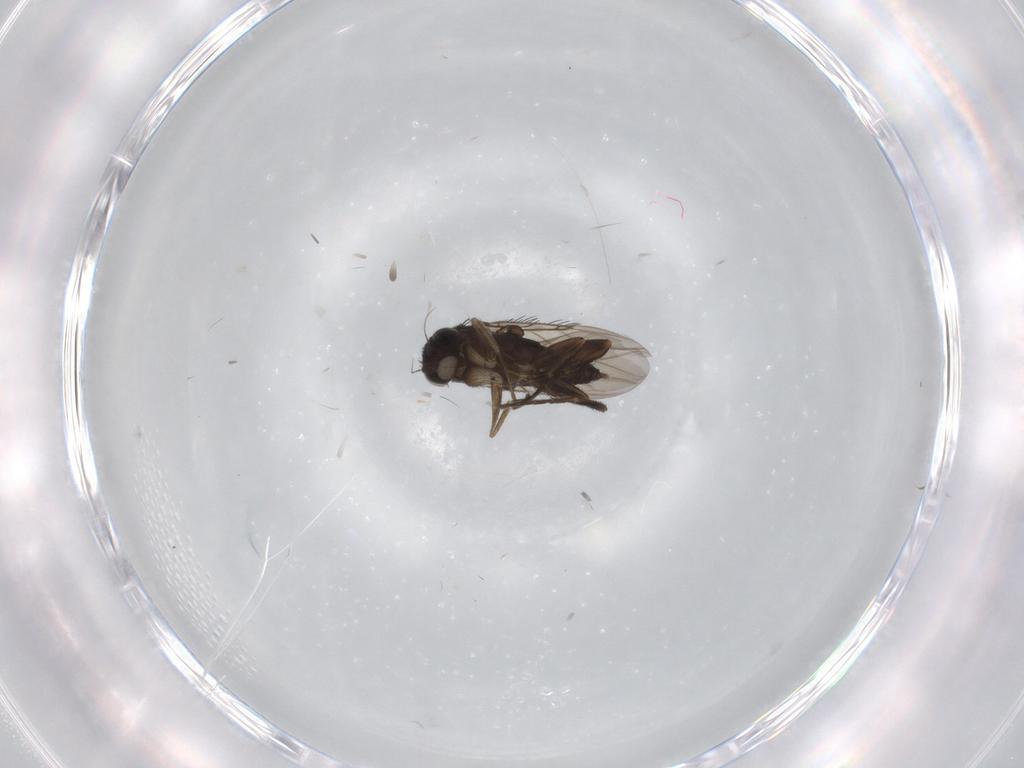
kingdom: Animalia
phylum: Arthropoda
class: Insecta
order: Diptera
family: Phoridae
